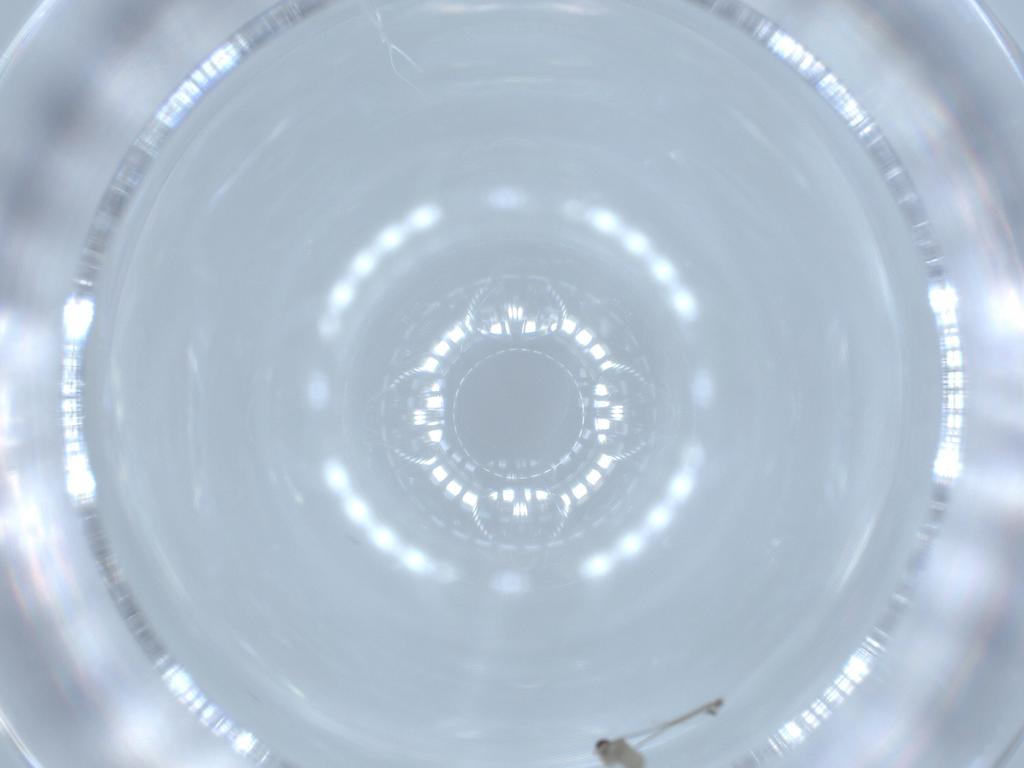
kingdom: Animalia
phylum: Arthropoda
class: Insecta
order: Diptera
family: Cecidomyiidae
